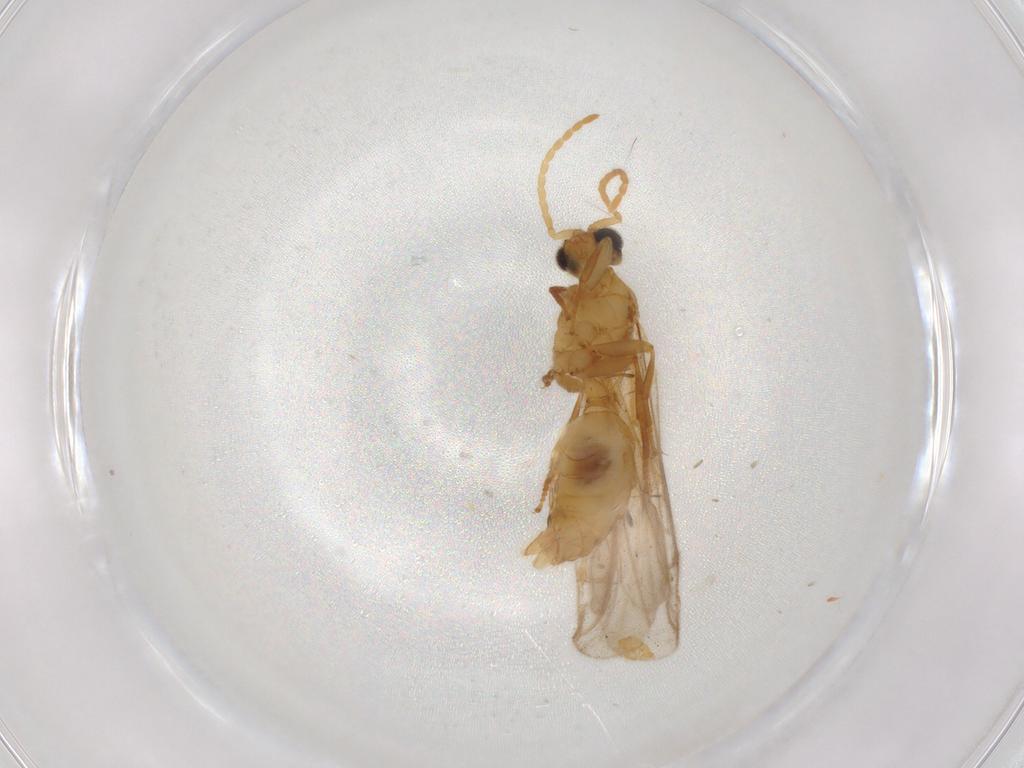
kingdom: Animalia
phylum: Arthropoda
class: Insecta
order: Hymenoptera
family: Formicidae
